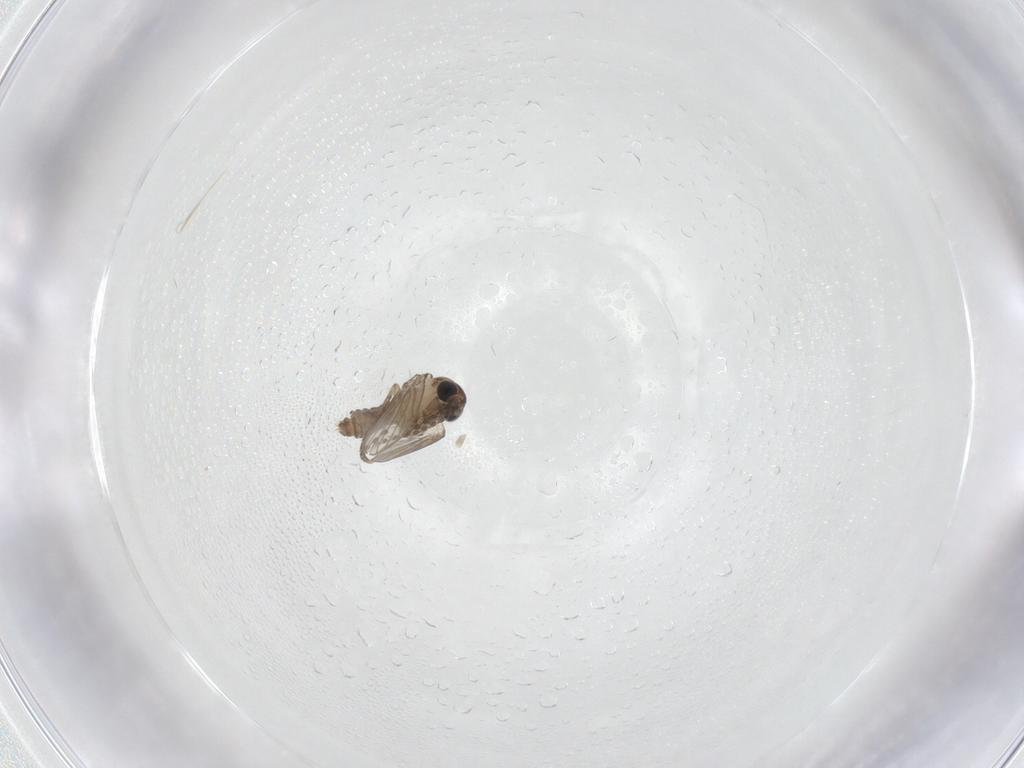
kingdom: Animalia
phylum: Arthropoda
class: Insecta
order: Diptera
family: Cecidomyiidae
